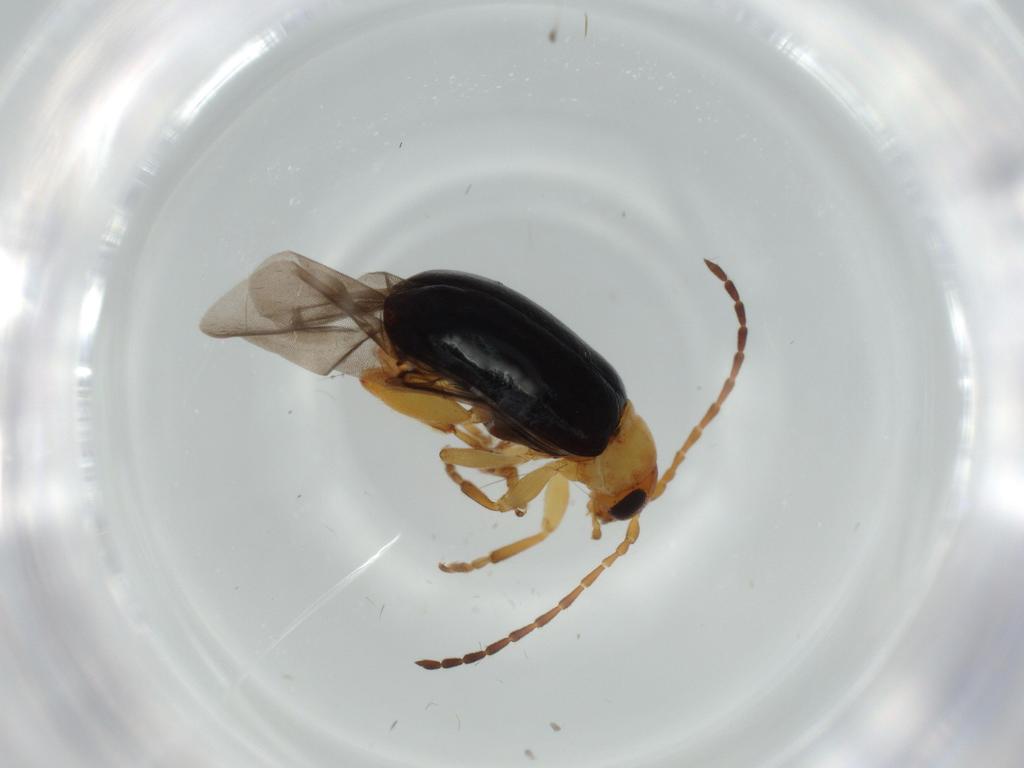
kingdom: Animalia
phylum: Arthropoda
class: Insecta
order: Coleoptera
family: Chrysomelidae
